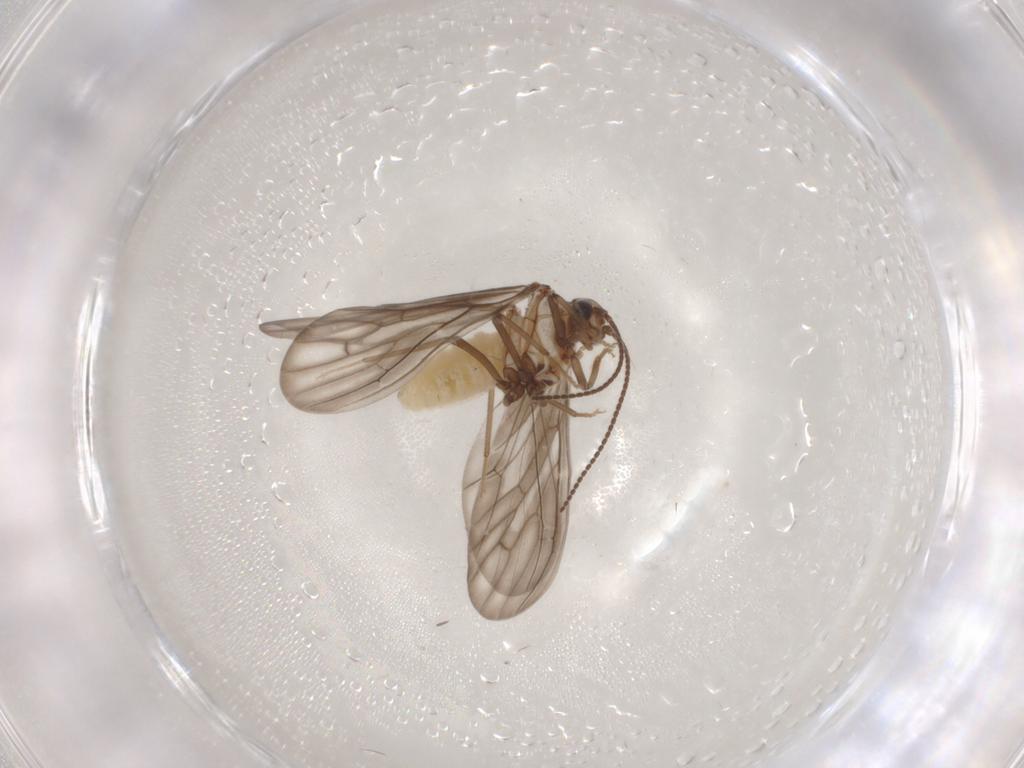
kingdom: Animalia
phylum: Arthropoda
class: Insecta
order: Neuroptera
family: Coniopterygidae
